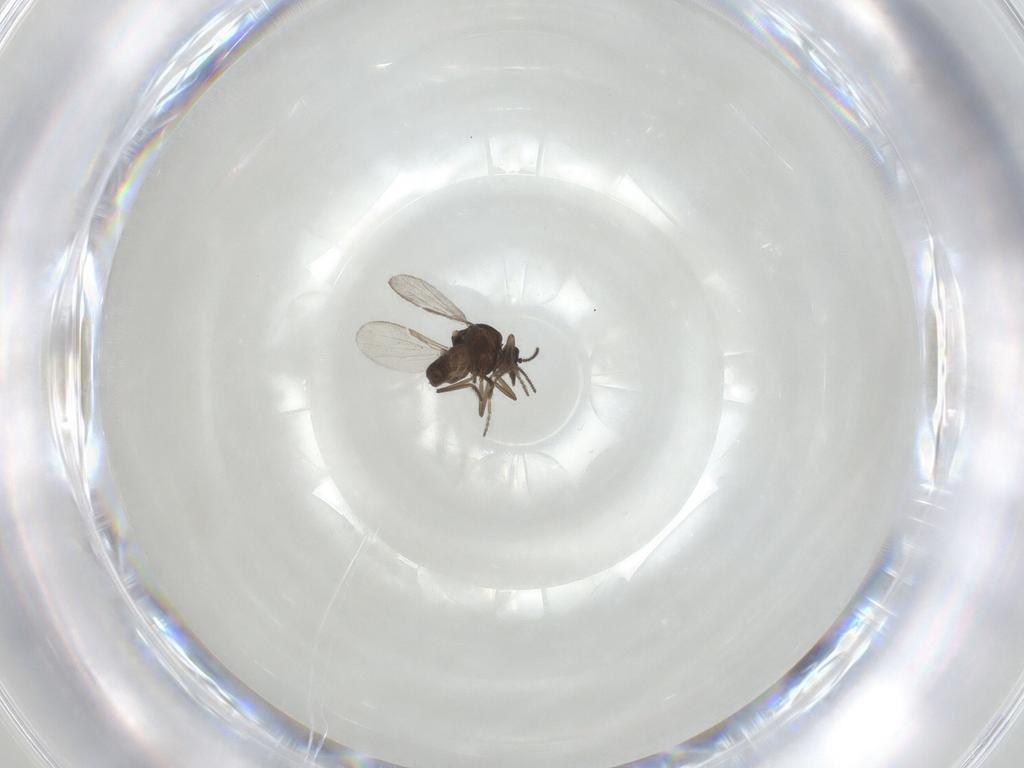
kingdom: Animalia
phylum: Arthropoda
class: Insecta
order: Diptera
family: Ceratopogonidae
